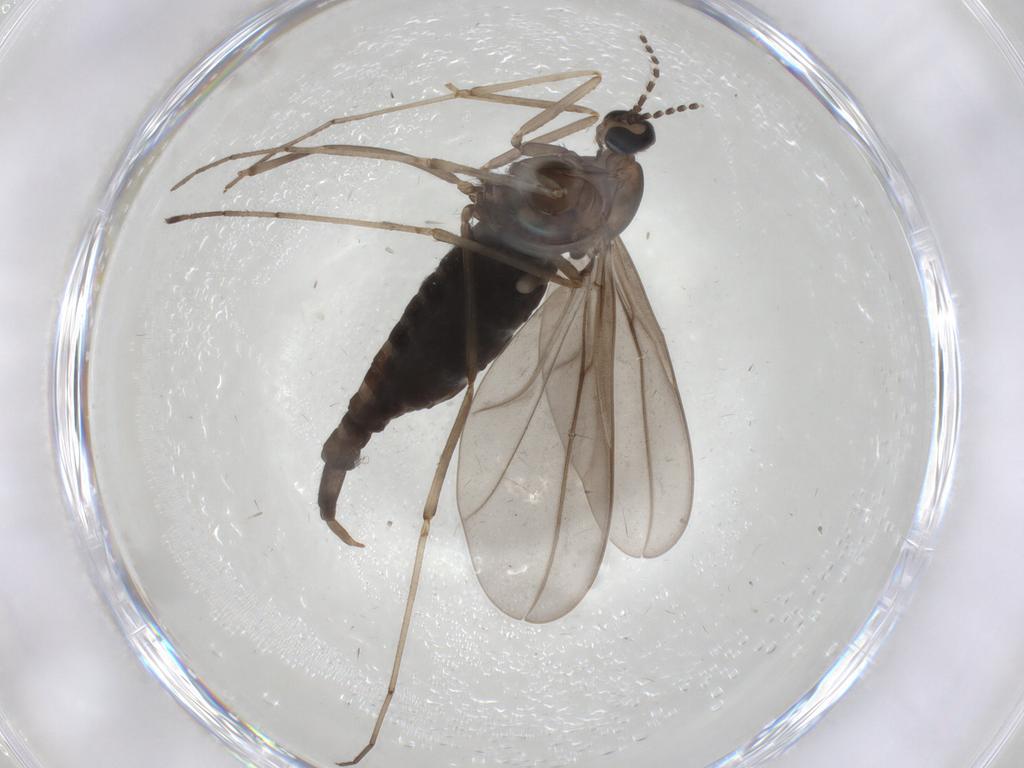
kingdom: Animalia
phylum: Arthropoda
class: Insecta
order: Diptera
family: Cecidomyiidae
